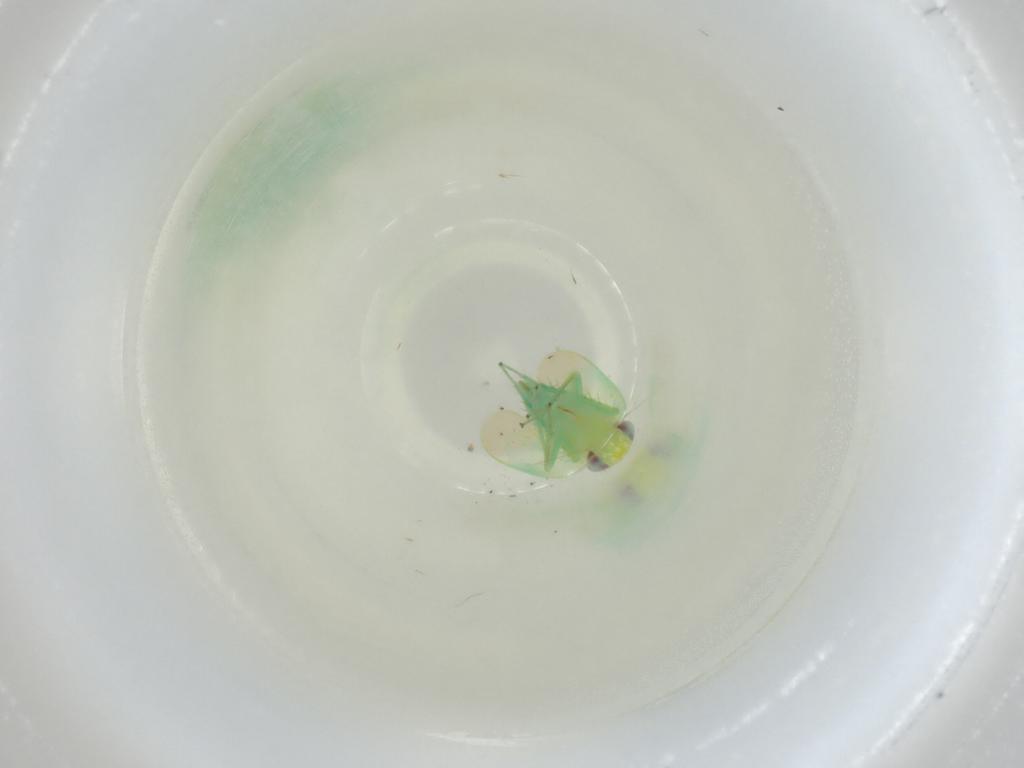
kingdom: Animalia
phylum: Arthropoda
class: Insecta
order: Hemiptera
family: Cicadellidae
